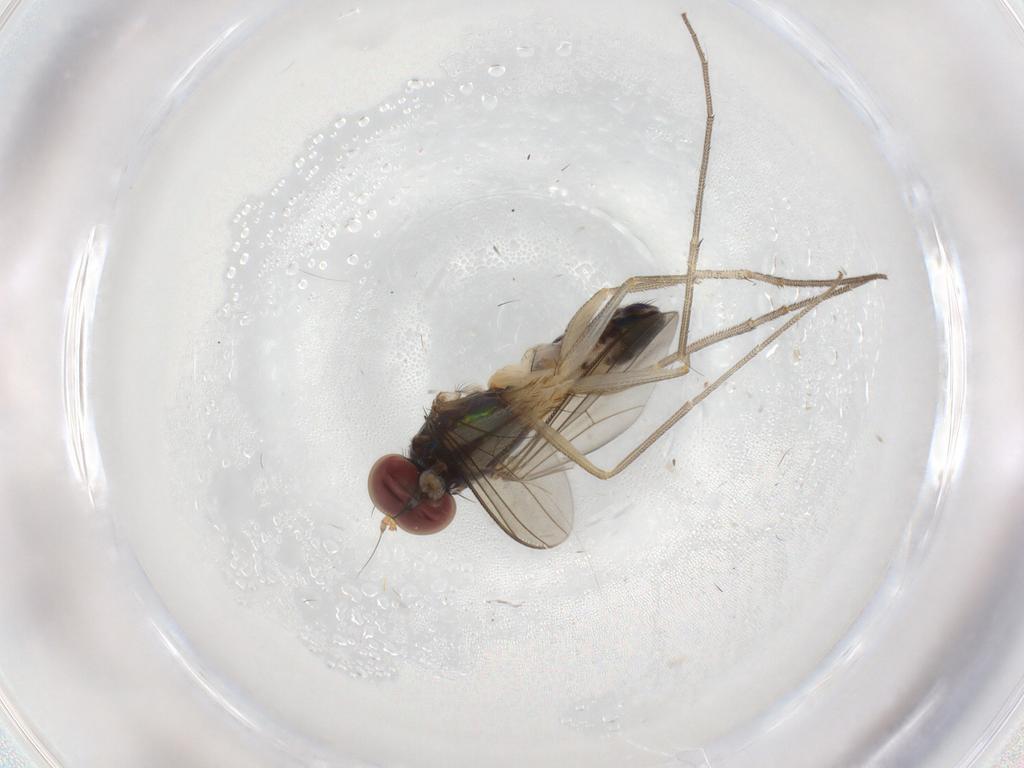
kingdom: Animalia
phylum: Arthropoda
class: Insecta
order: Diptera
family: Dolichopodidae
